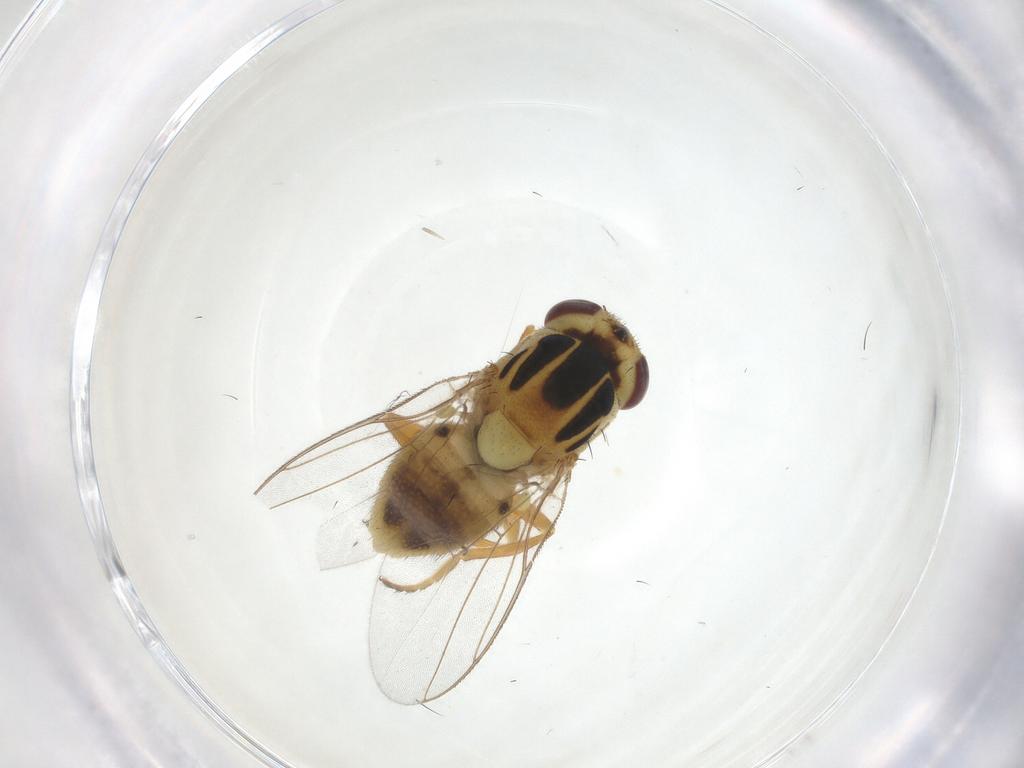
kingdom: Animalia
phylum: Arthropoda
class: Insecta
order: Diptera
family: Chloropidae
